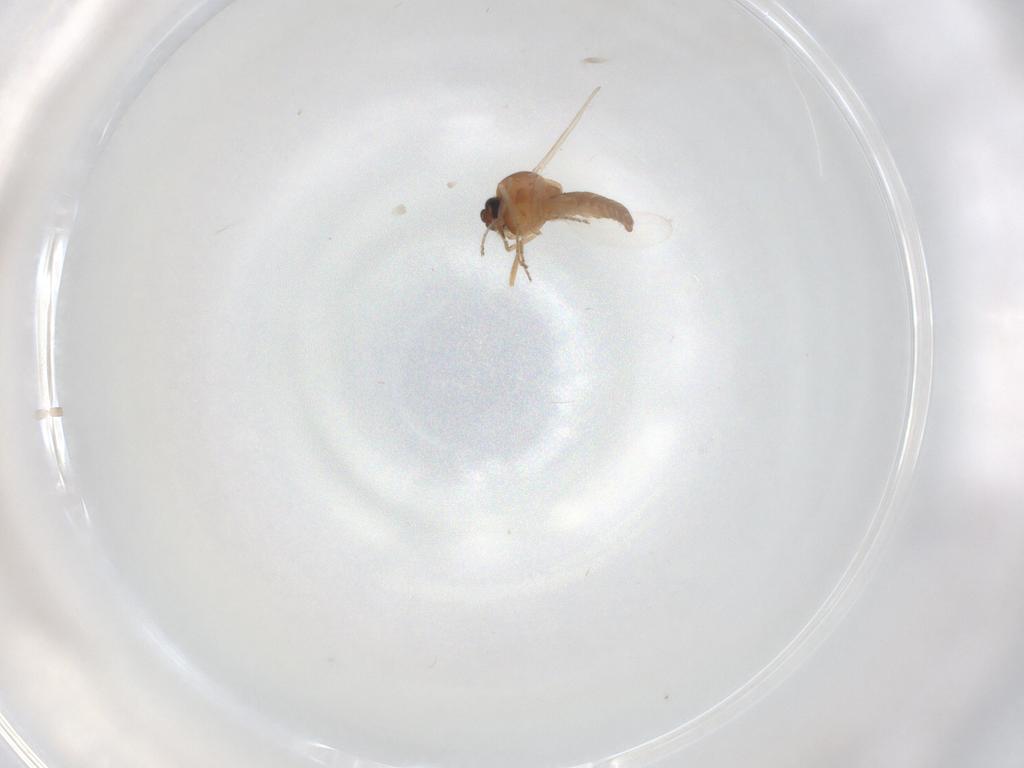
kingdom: Animalia
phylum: Arthropoda
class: Insecta
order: Diptera
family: Ceratopogonidae
